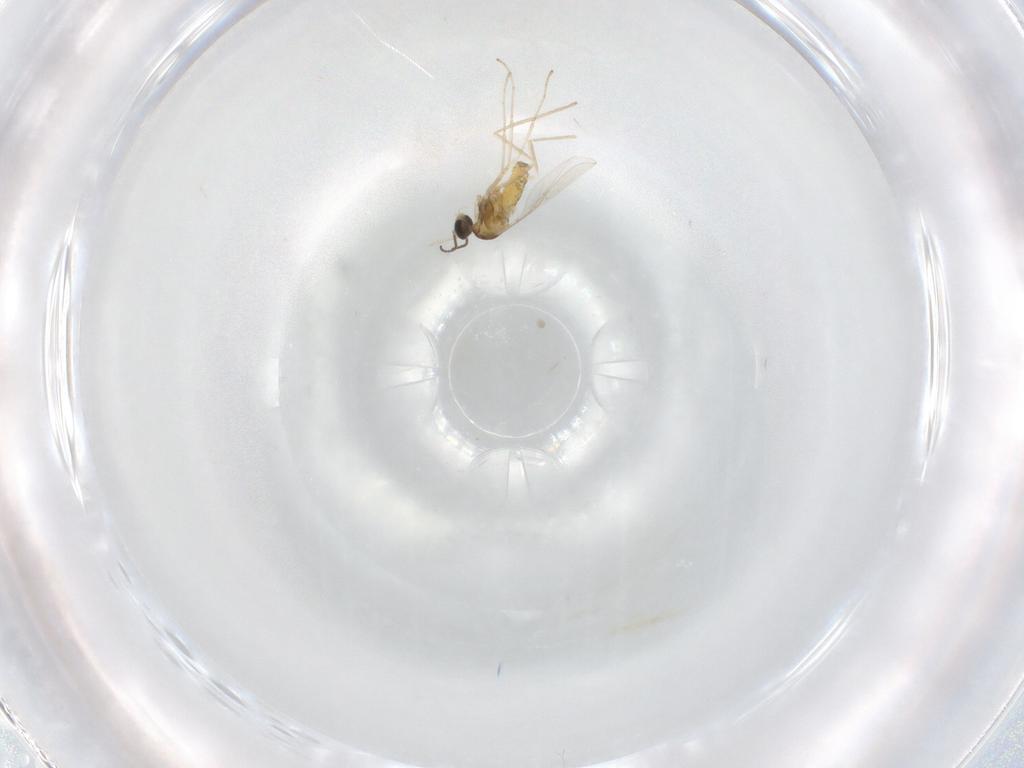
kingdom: Animalia
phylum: Arthropoda
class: Insecta
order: Diptera
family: Cecidomyiidae
